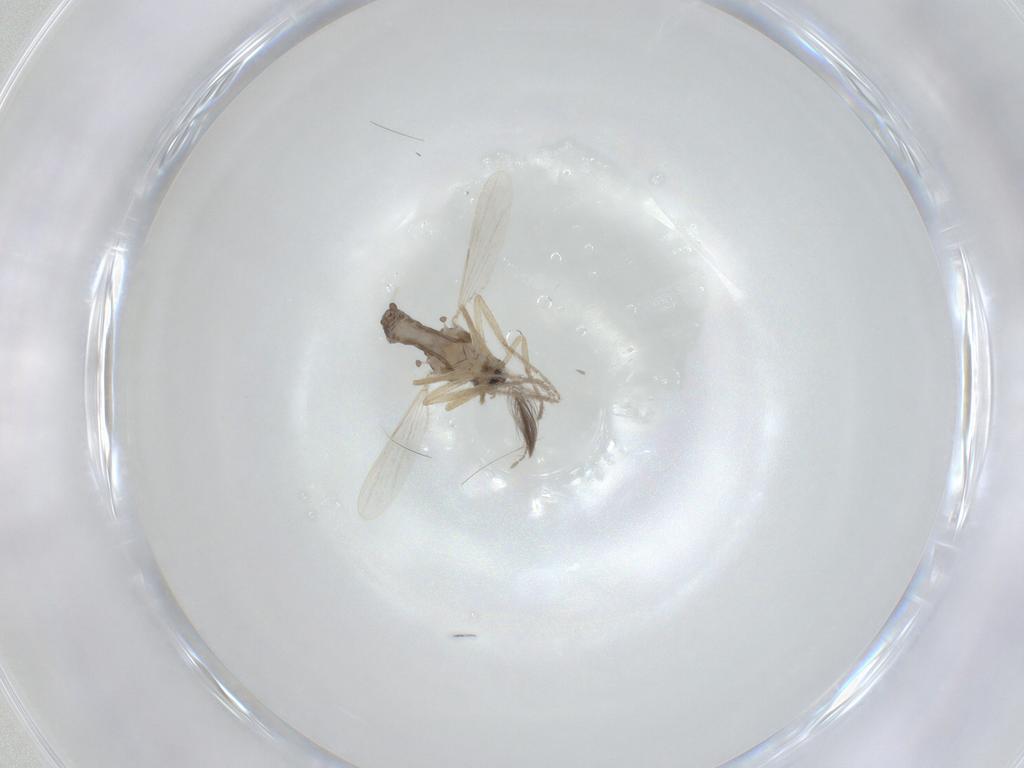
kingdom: Animalia
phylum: Arthropoda
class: Insecta
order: Diptera
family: Ceratopogonidae
